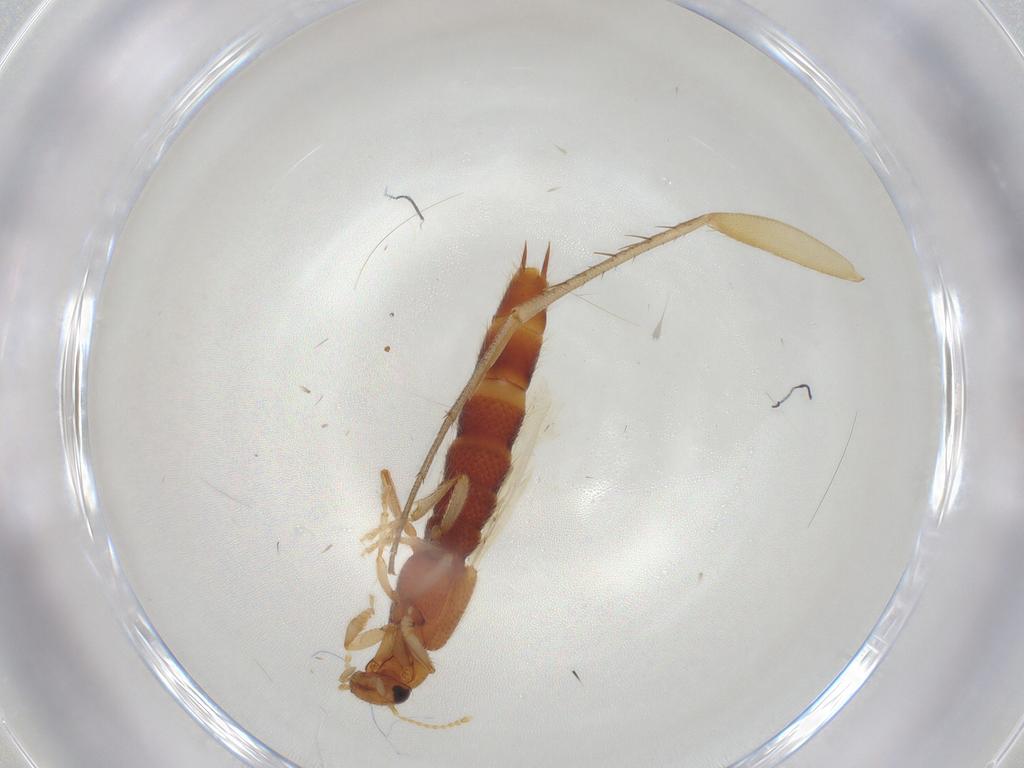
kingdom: Animalia
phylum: Arthropoda
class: Insecta
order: Coleoptera
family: Staphylinidae
